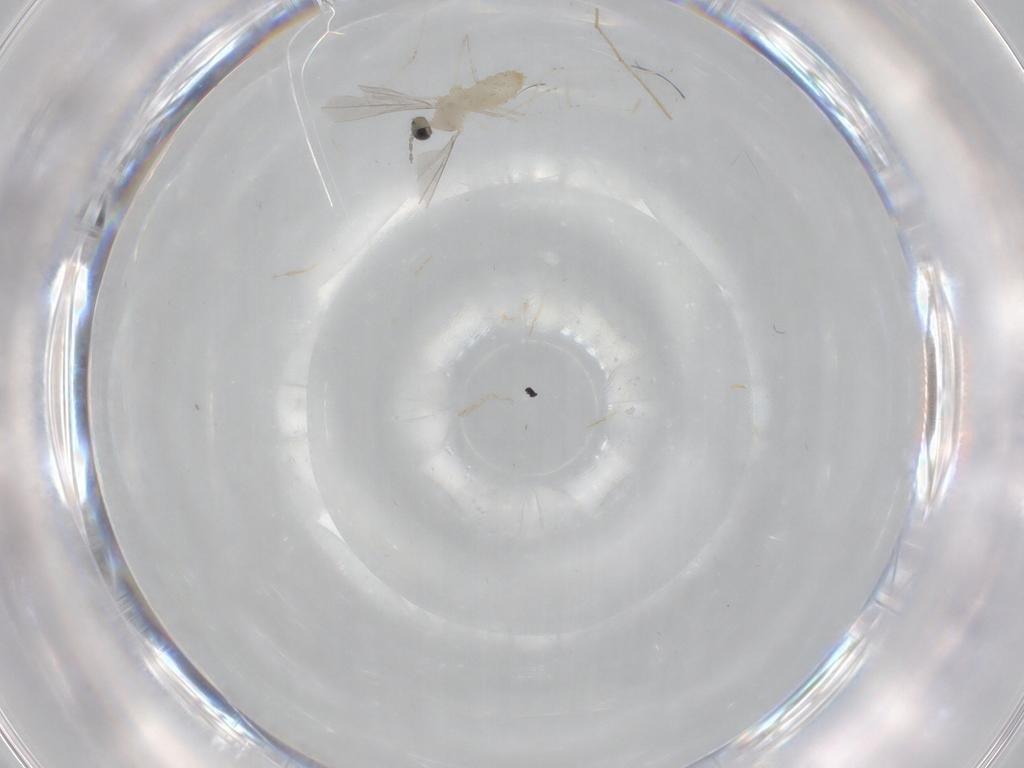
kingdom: Animalia
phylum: Arthropoda
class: Insecta
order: Diptera
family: Cecidomyiidae
